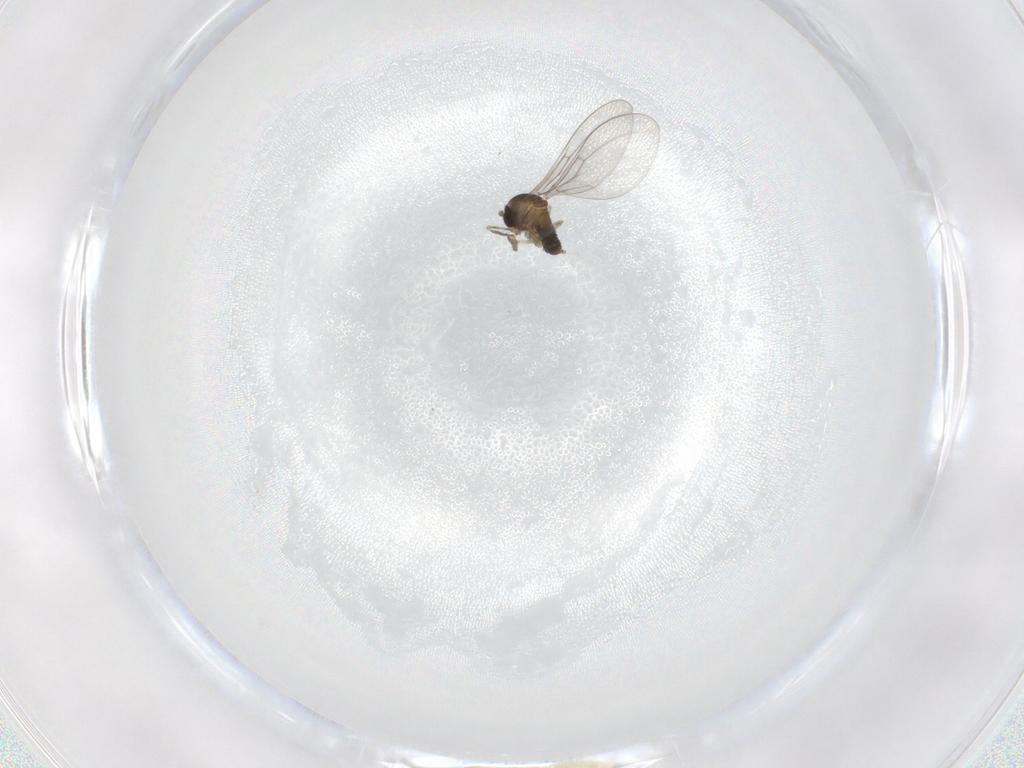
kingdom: Animalia
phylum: Arthropoda
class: Insecta
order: Diptera
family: Cecidomyiidae
